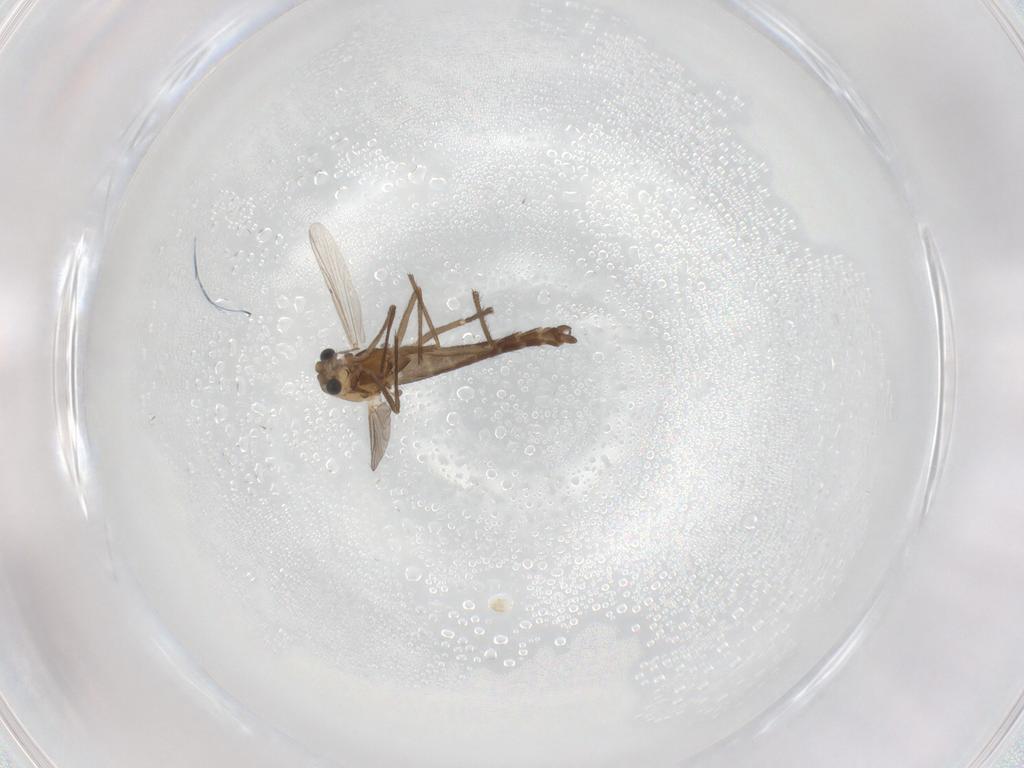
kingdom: Animalia
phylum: Arthropoda
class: Insecta
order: Diptera
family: Chironomidae
